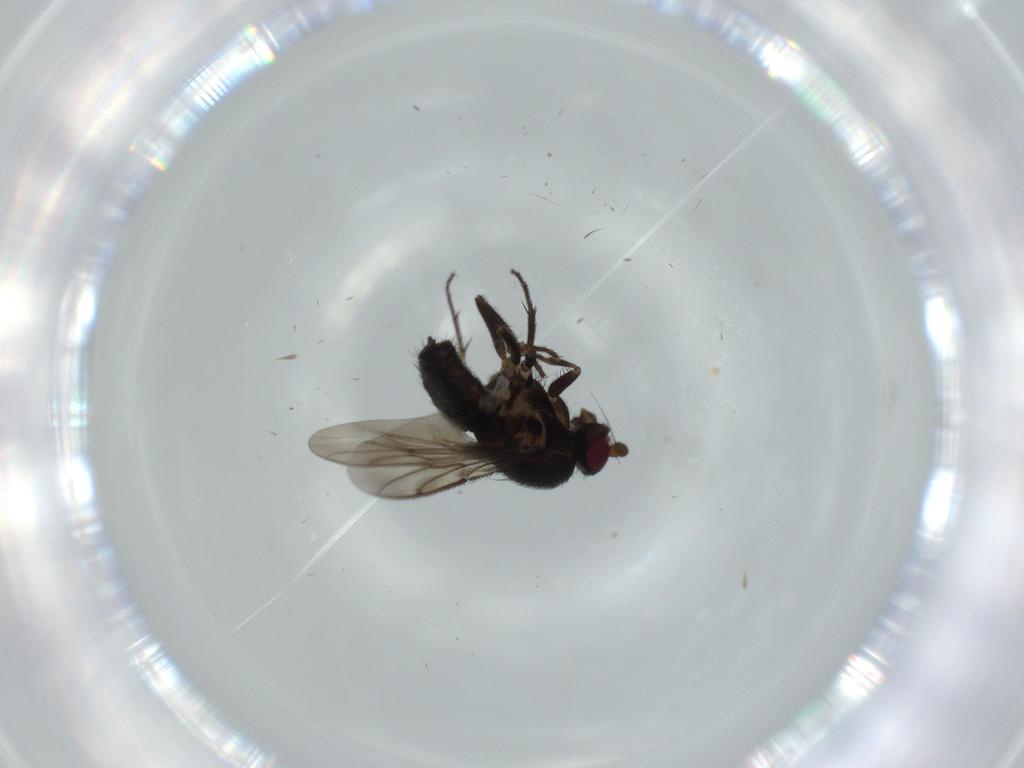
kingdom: Animalia
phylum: Arthropoda
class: Insecta
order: Diptera
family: Sphaeroceridae
